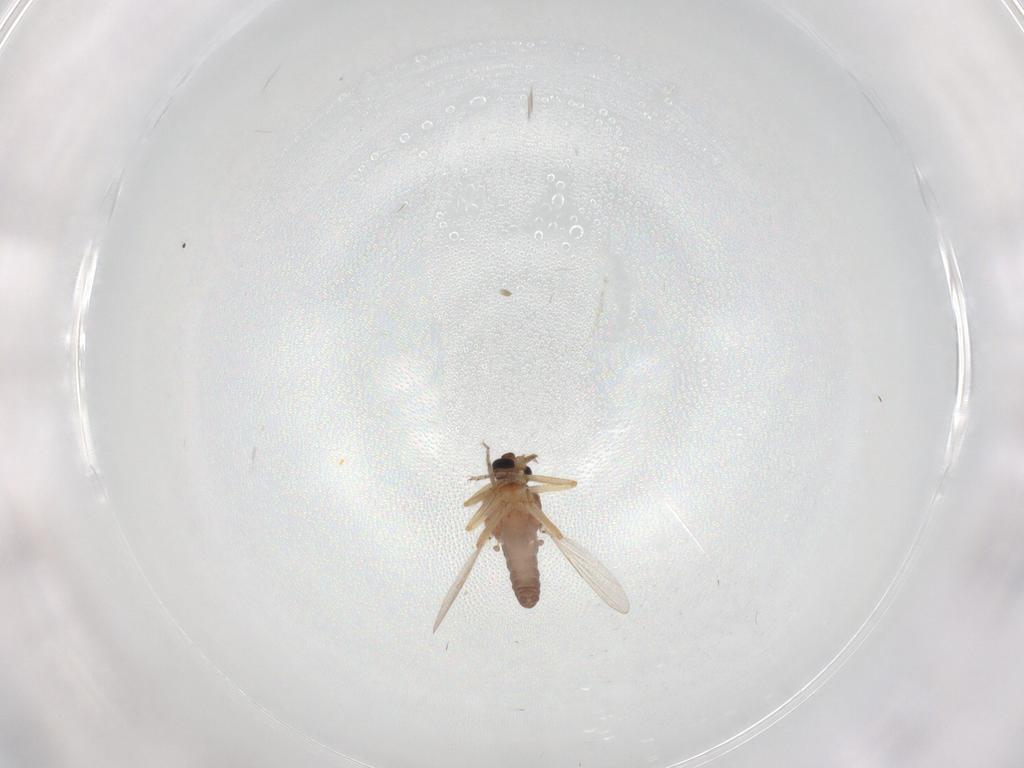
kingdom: Animalia
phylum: Arthropoda
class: Insecta
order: Diptera
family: Ceratopogonidae
